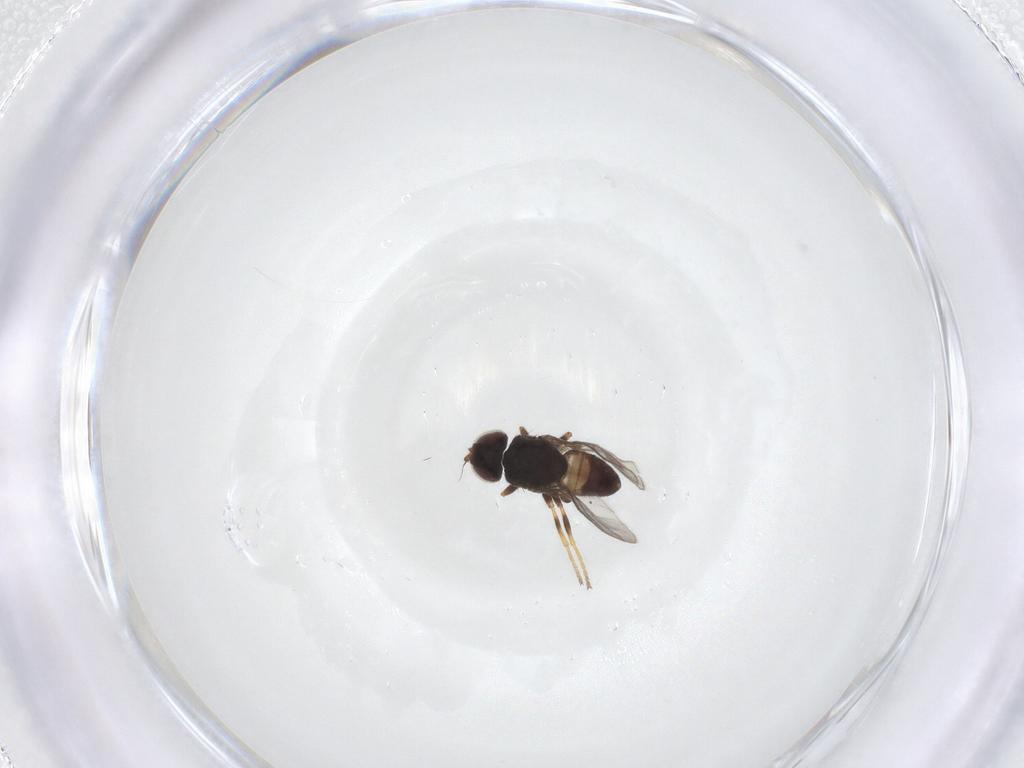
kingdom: Animalia
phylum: Arthropoda
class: Insecta
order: Diptera
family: Chloropidae
